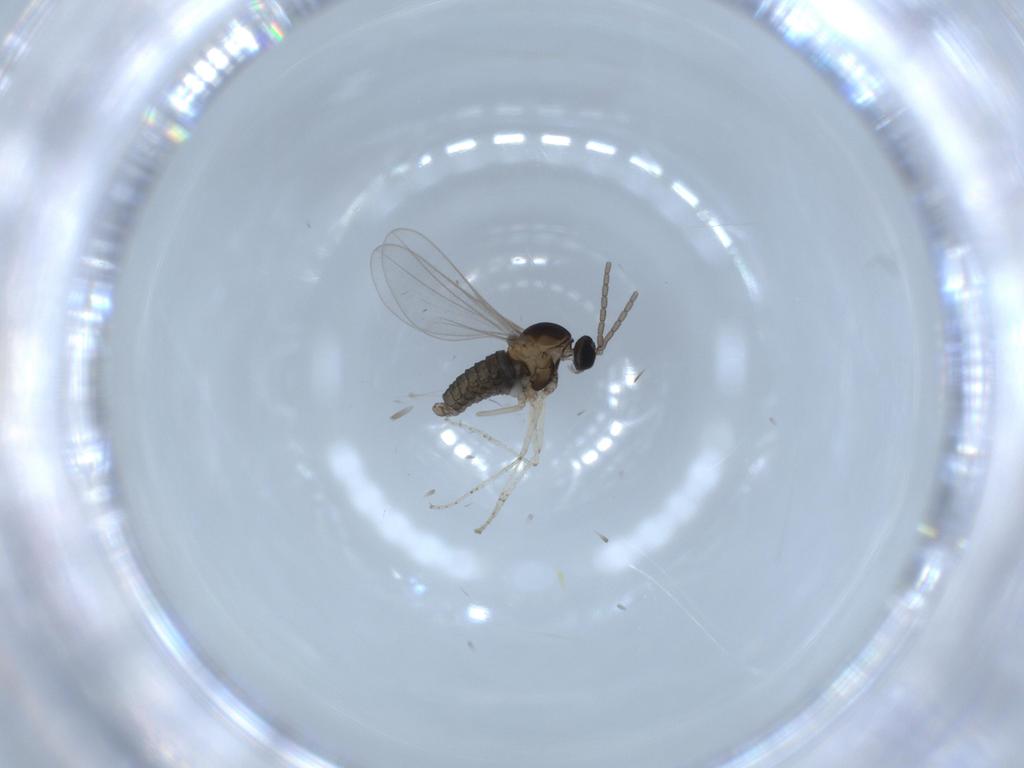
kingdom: Animalia
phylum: Arthropoda
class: Insecta
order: Diptera
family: Cecidomyiidae
